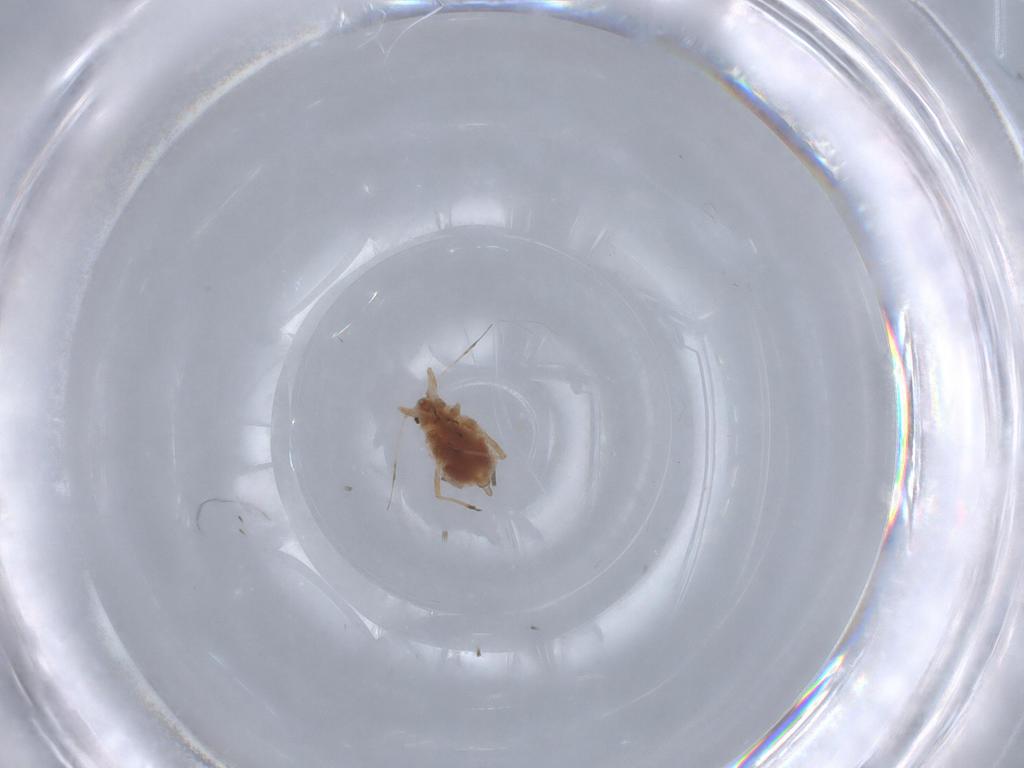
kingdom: Animalia
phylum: Arthropoda
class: Insecta
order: Hemiptera
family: Aphididae
